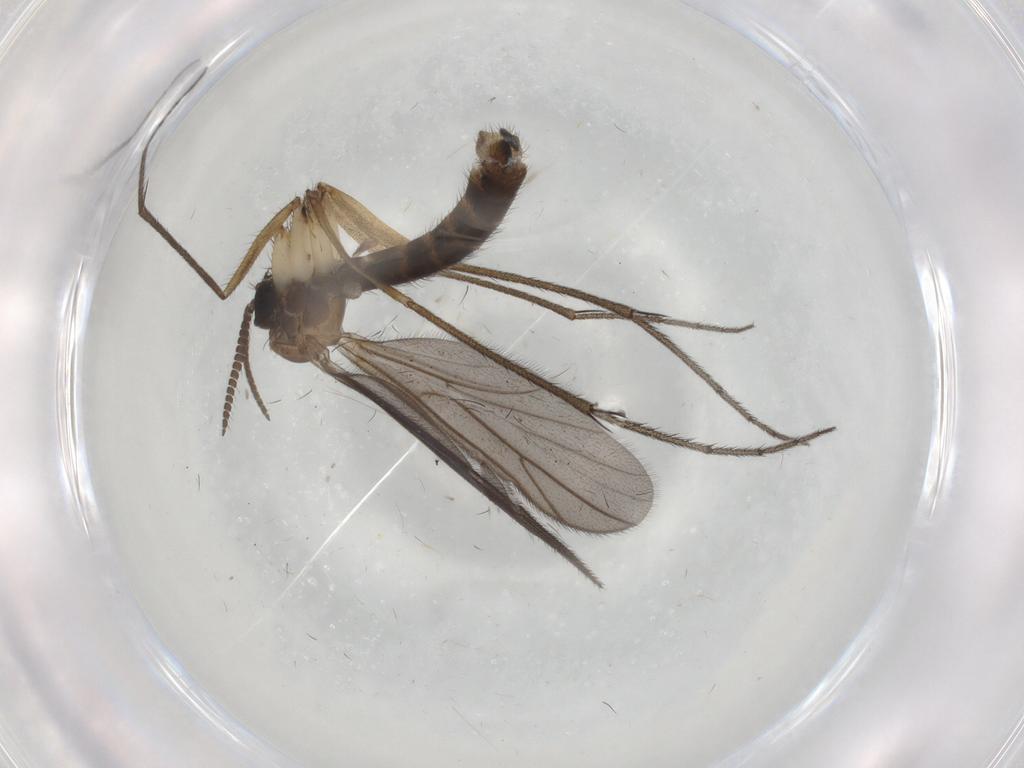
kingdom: Animalia
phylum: Arthropoda
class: Insecta
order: Diptera
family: Ditomyiidae
